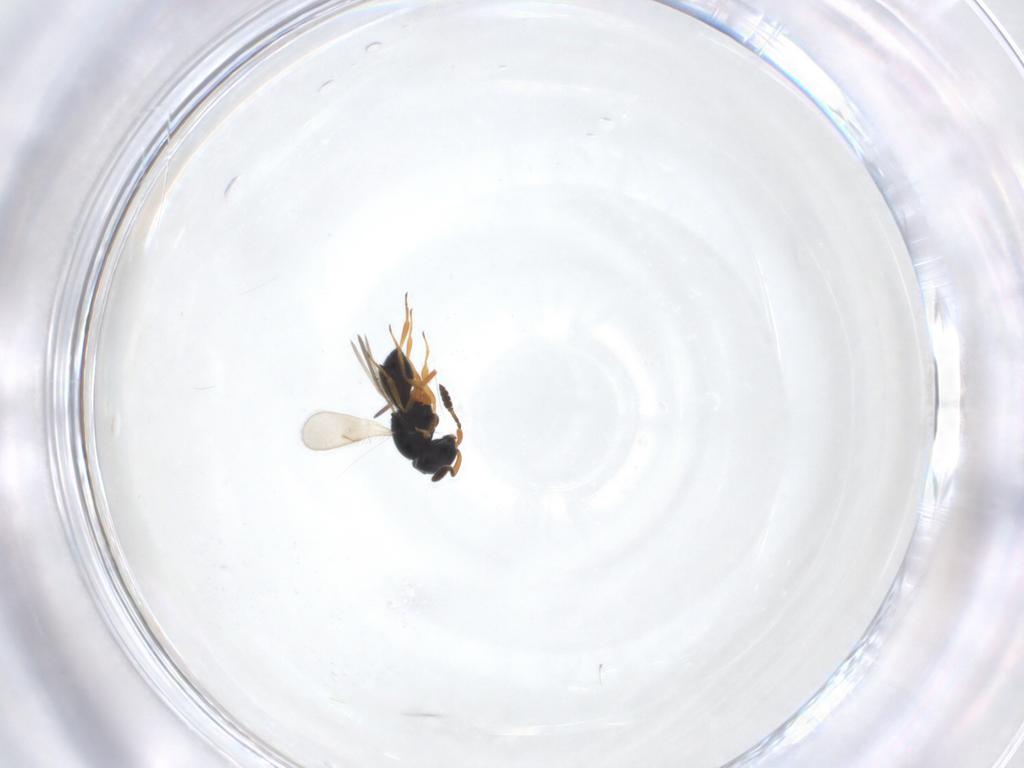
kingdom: Animalia
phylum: Arthropoda
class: Insecta
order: Hymenoptera
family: Scelionidae
